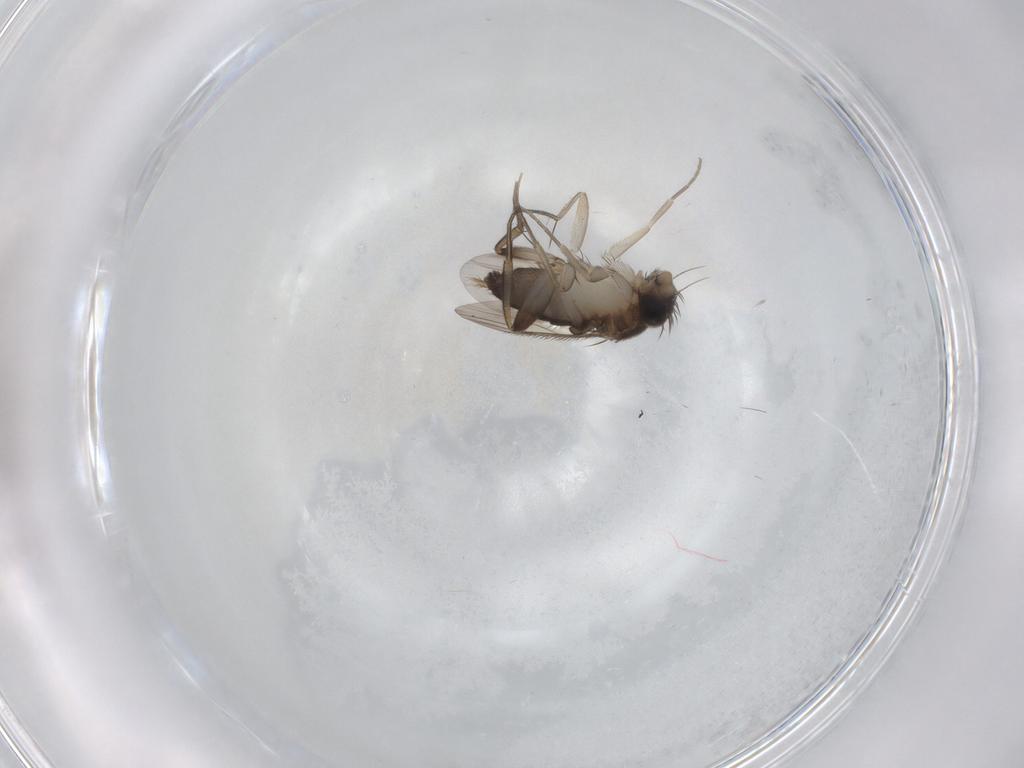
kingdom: Animalia
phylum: Arthropoda
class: Insecta
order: Diptera
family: Phoridae
